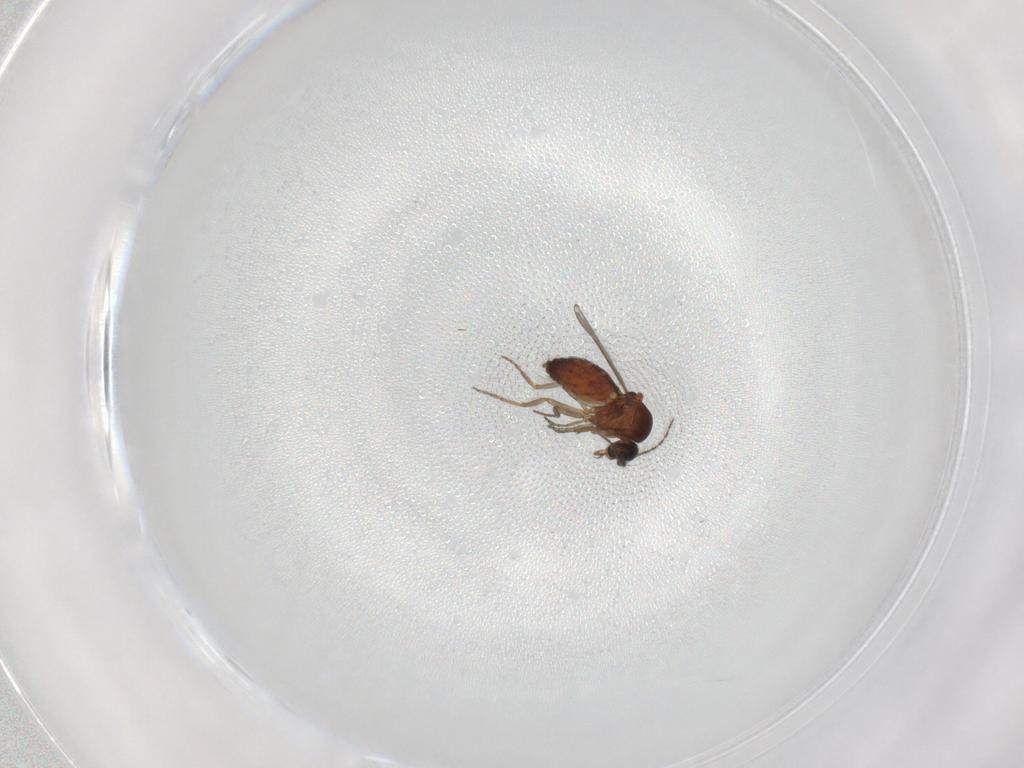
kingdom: Animalia
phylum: Arthropoda
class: Insecta
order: Diptera
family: Ceratopogonidae
